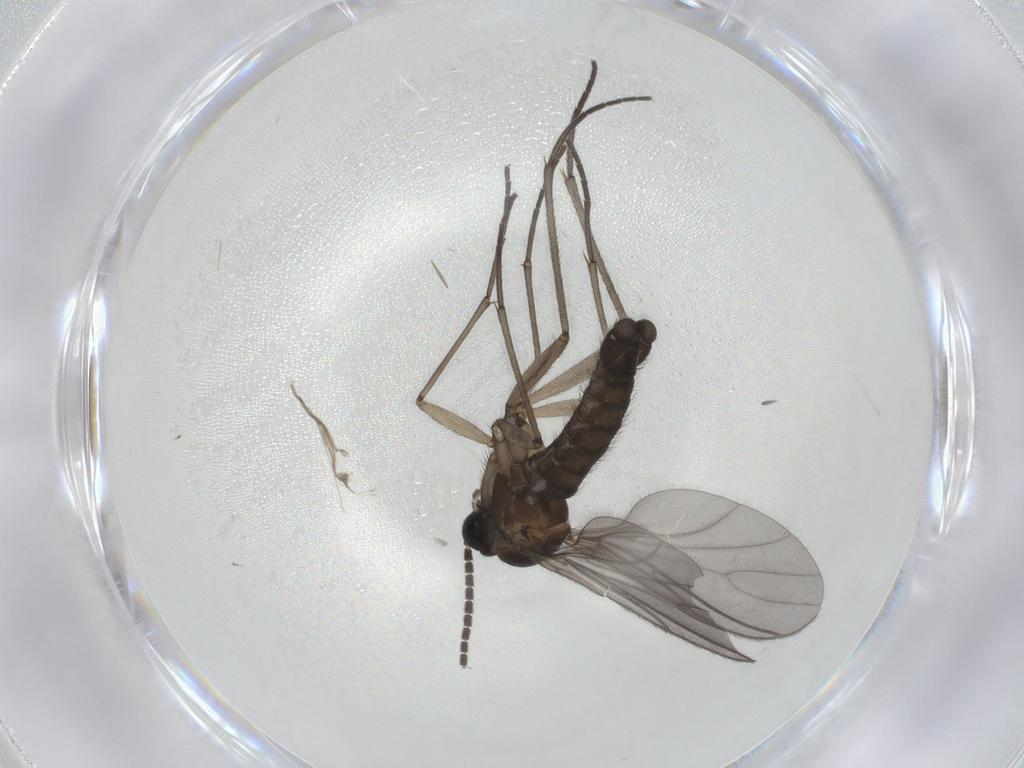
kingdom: Animalia
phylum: Arthropoda
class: Insecta
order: Diptera
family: Sciaridae
